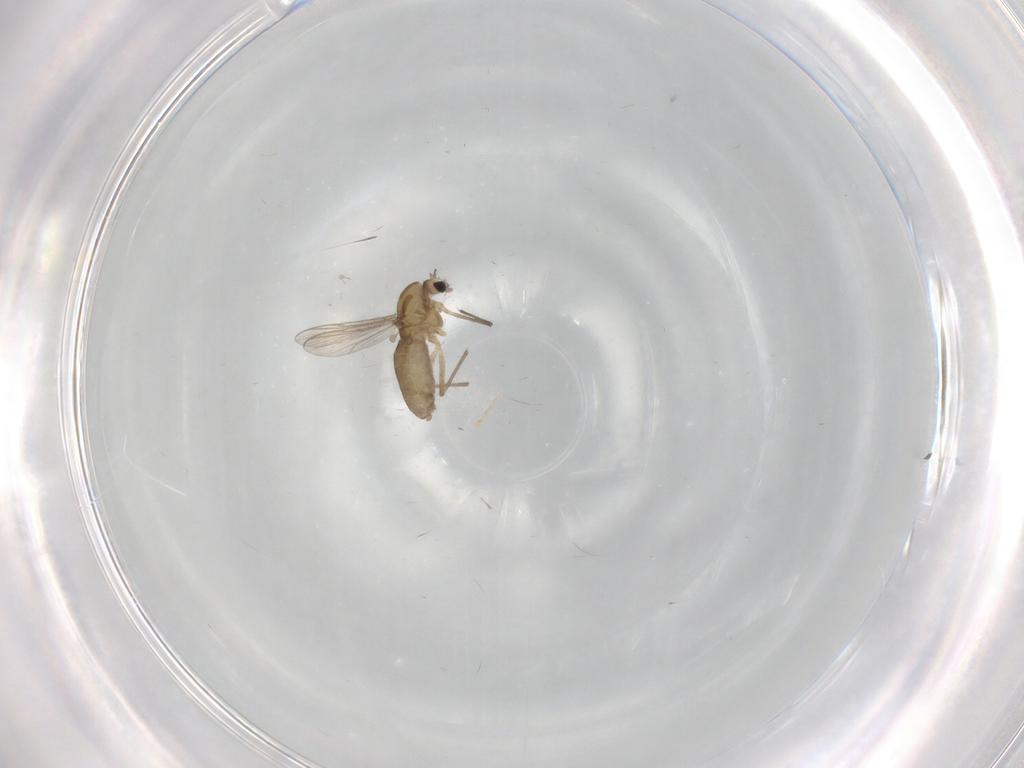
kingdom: Animalia
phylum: Arthropoda
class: Insecta
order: Diptera
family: Chironomidae
